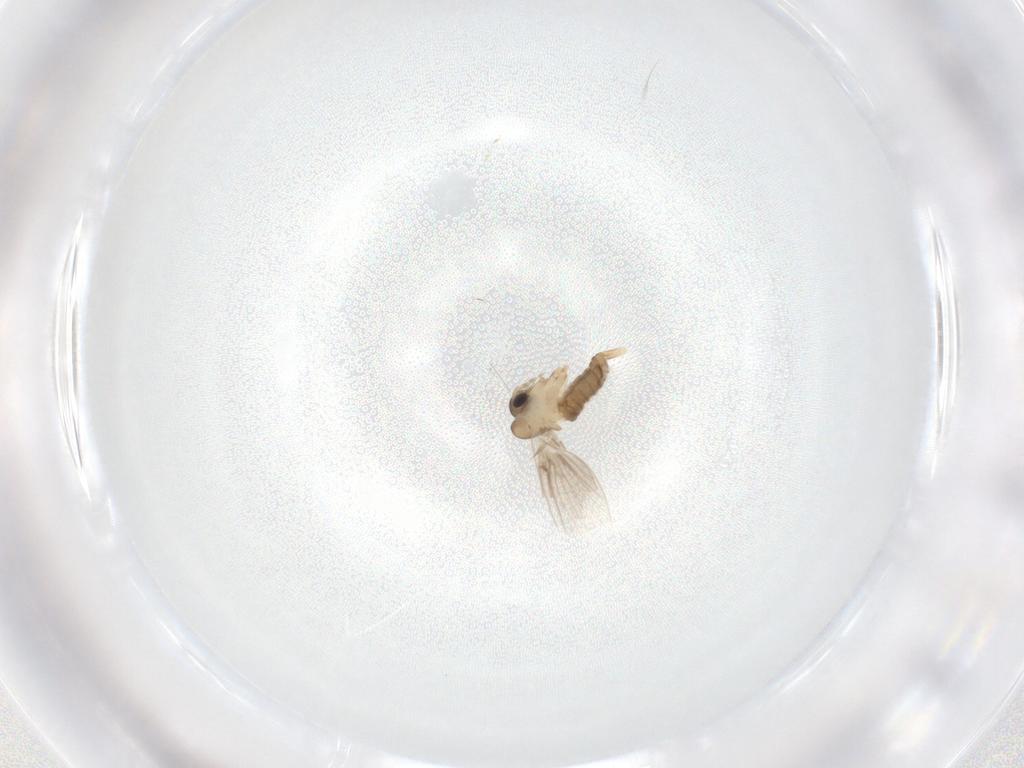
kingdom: Animalia
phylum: Arthropoda
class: Insecta
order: Diptera
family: Psychodidae
